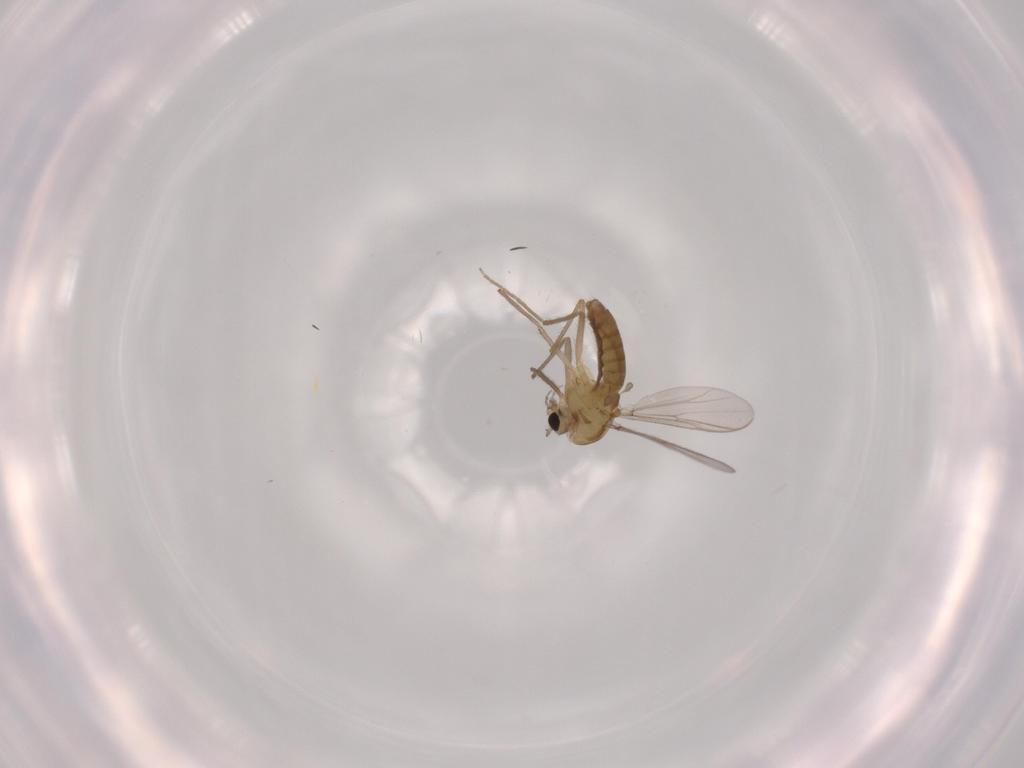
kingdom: Animalia
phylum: Arthropoda
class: Insecta
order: Diptera
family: Chironomidae
